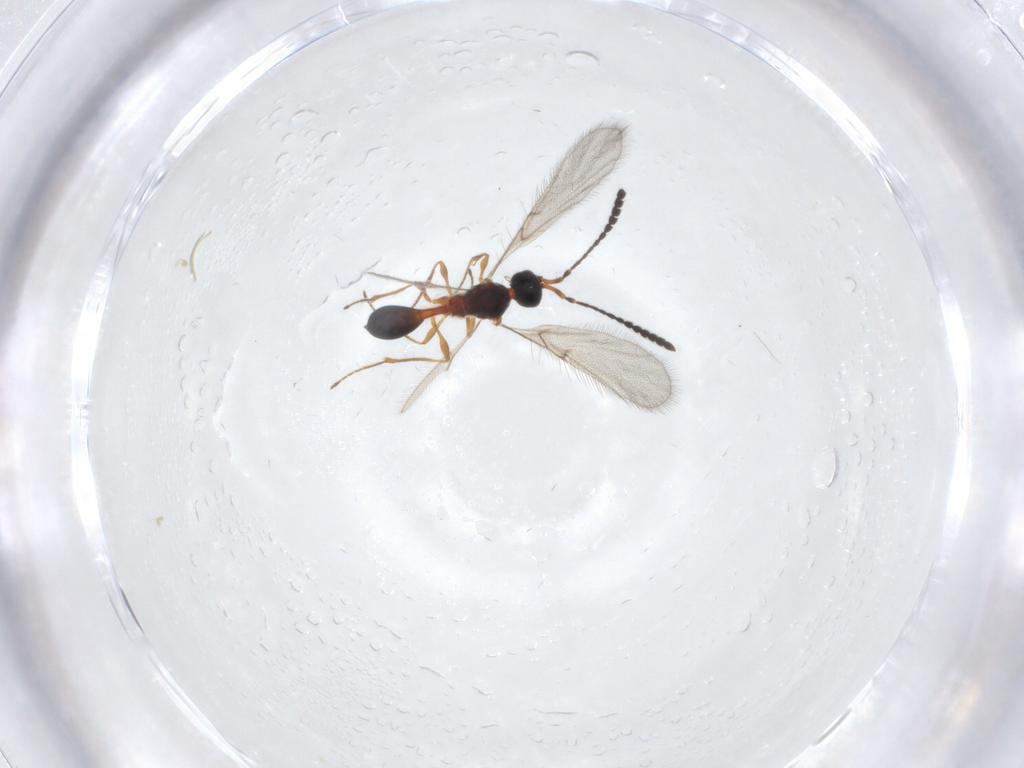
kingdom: Animalia
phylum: Arthropoda
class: Insecta
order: Hymenoptera
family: Diapriidae
